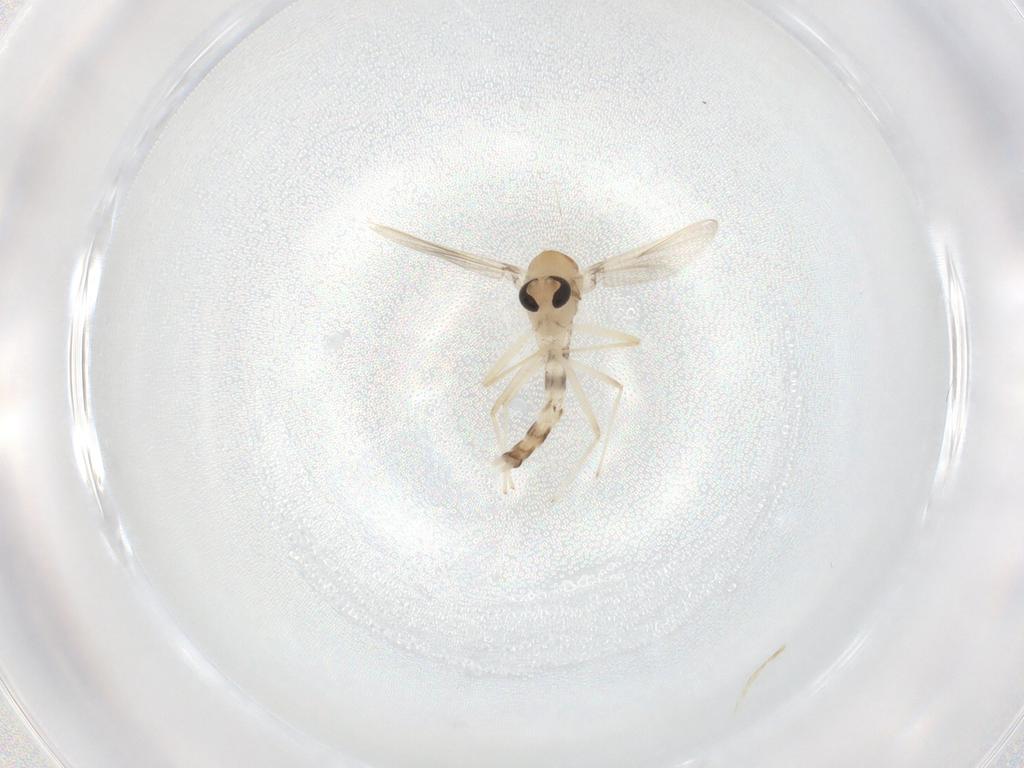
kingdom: Animalia
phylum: Arthropoda
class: Insecta
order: Diptera
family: Chironomidae
